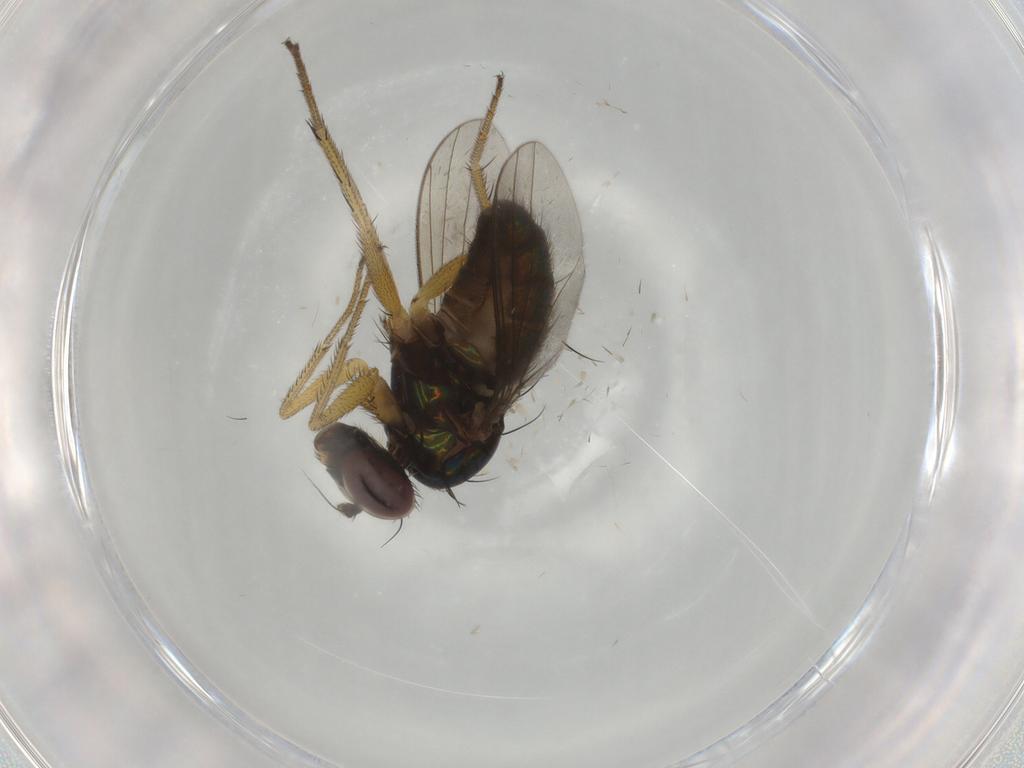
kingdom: Animalia
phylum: Arthropoda
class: Insecta
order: Diptera
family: Dolichopodidae
